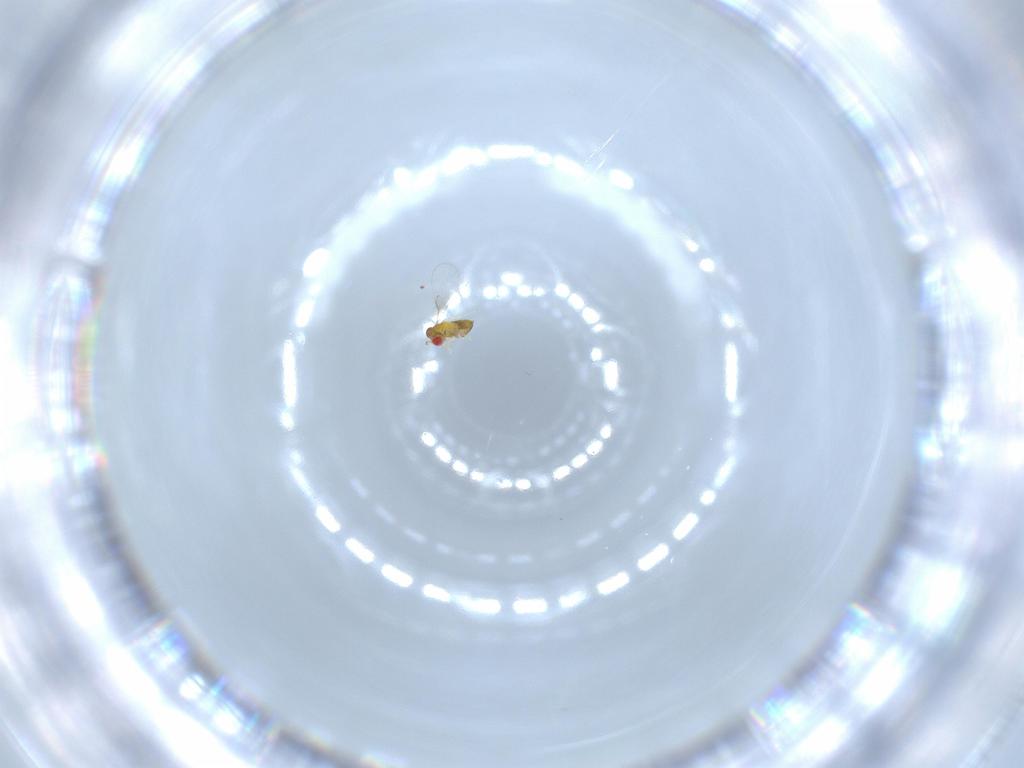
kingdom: Animalia
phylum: Arthropoda
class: Insecta
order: Hymenoptera
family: Trichogrammatidae
